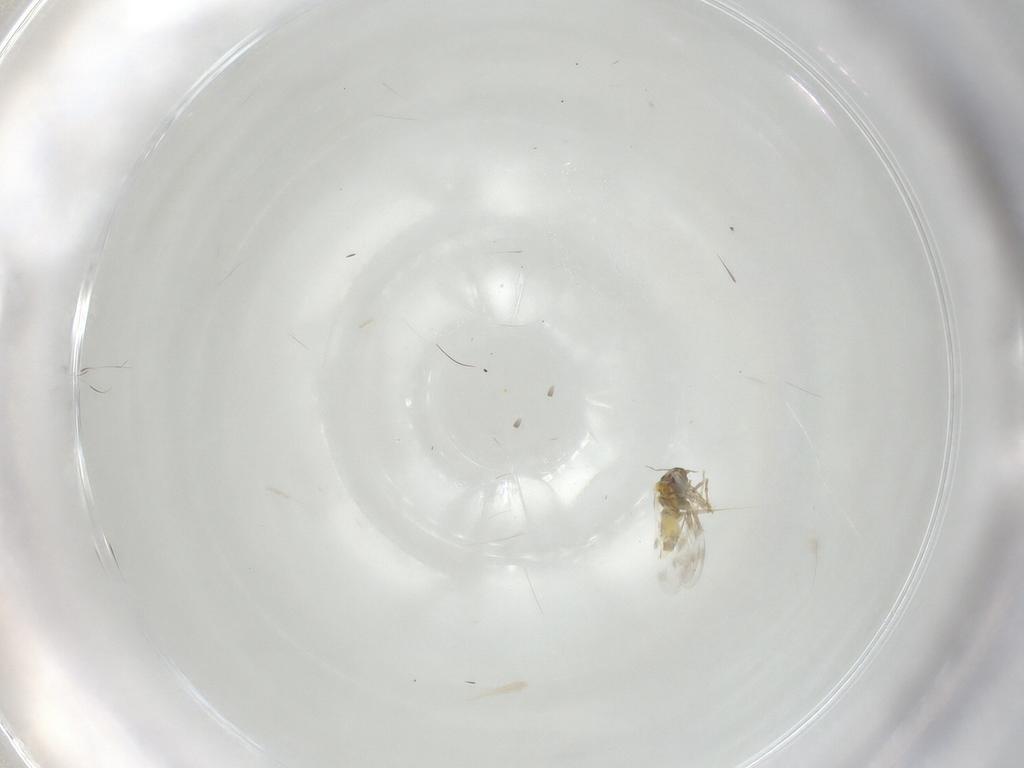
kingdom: Animalia
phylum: Arthropoda
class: Insecta
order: Hemiptera
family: Aleyrodidae
